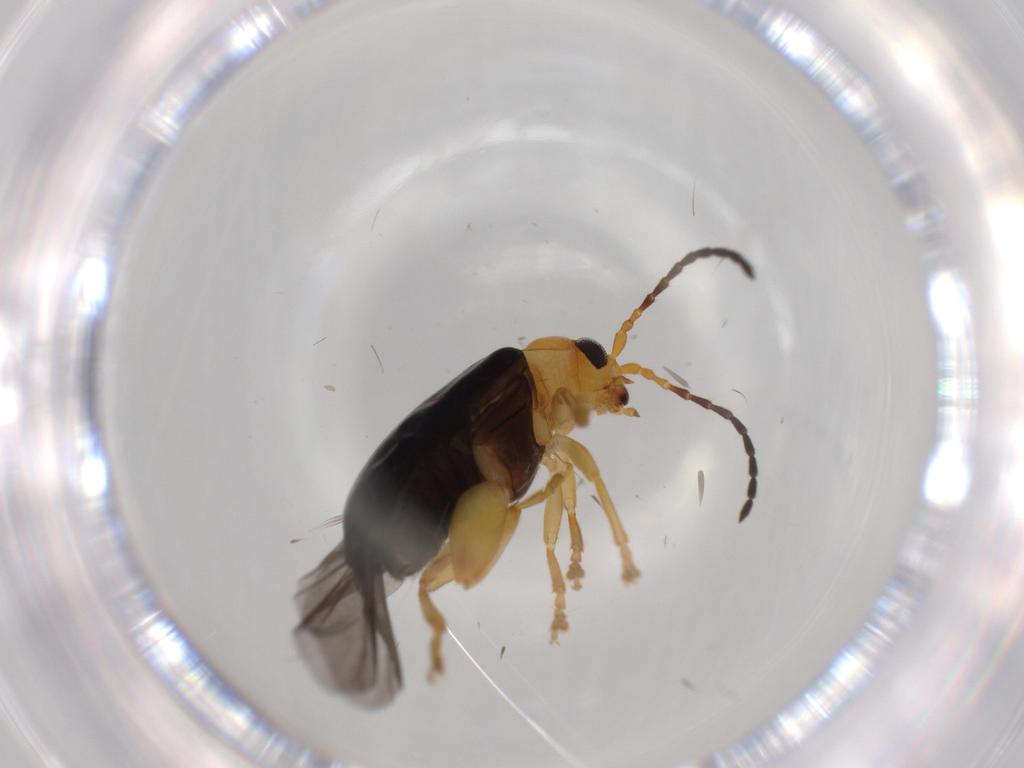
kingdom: Animalia
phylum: Arthropoda
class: Insecta
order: Coleoptera
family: Chrysomelidae
